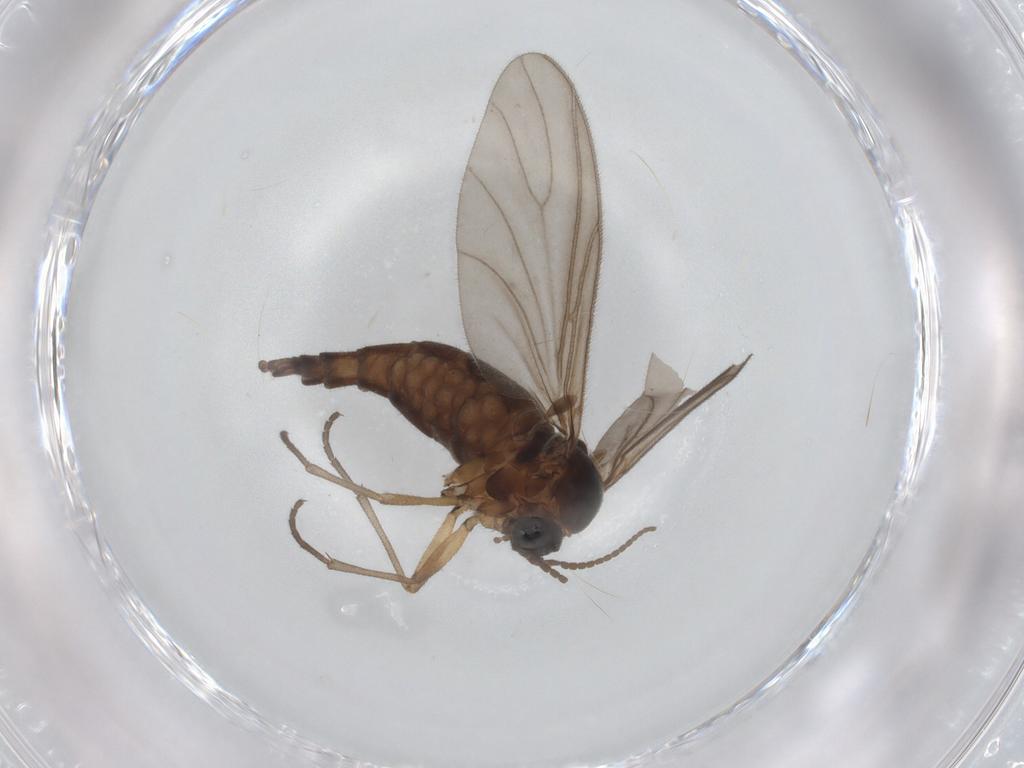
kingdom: Animalia
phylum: Arthropoda
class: Insecta
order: Diptera
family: Sciaridae
